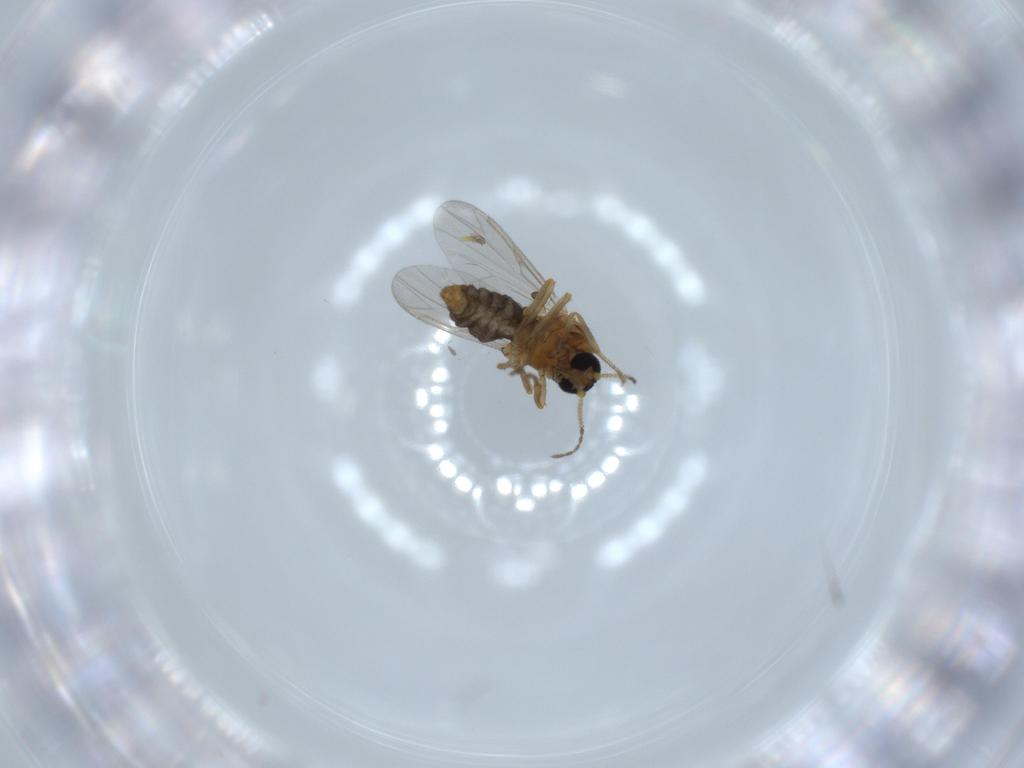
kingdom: Animalia
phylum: Arthropoda
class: Insecta
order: Diptera
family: Ceratopogonidae
